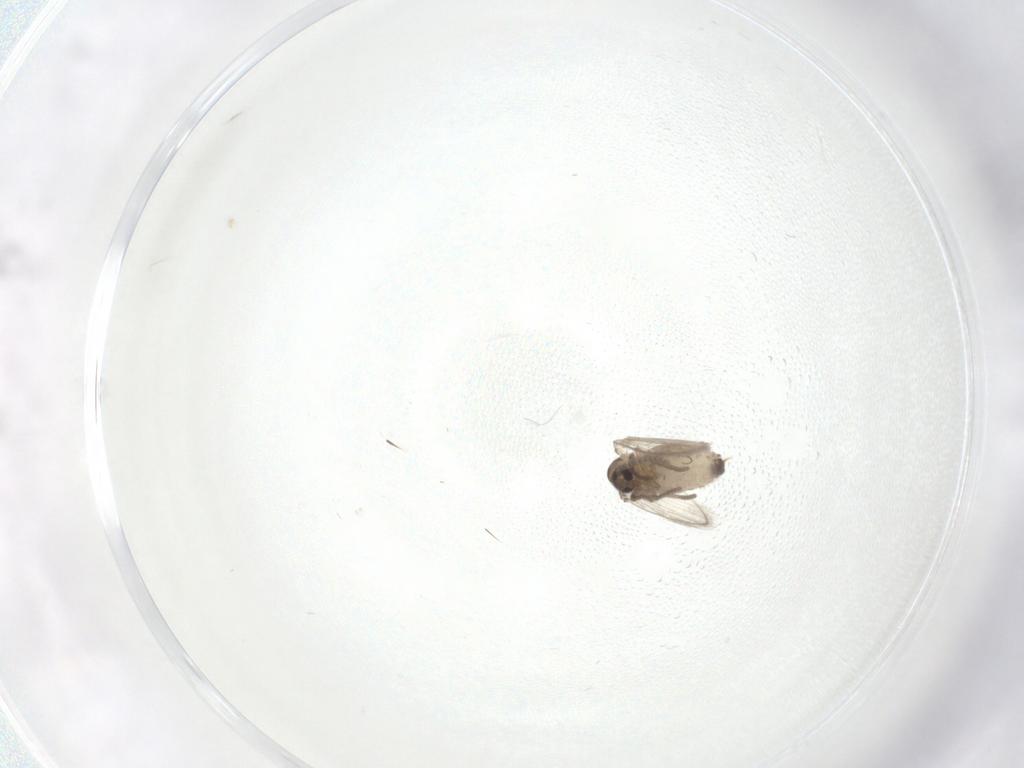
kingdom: Animalia
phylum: Arthropoda
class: Insecta
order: Diptera
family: Psychodidae
